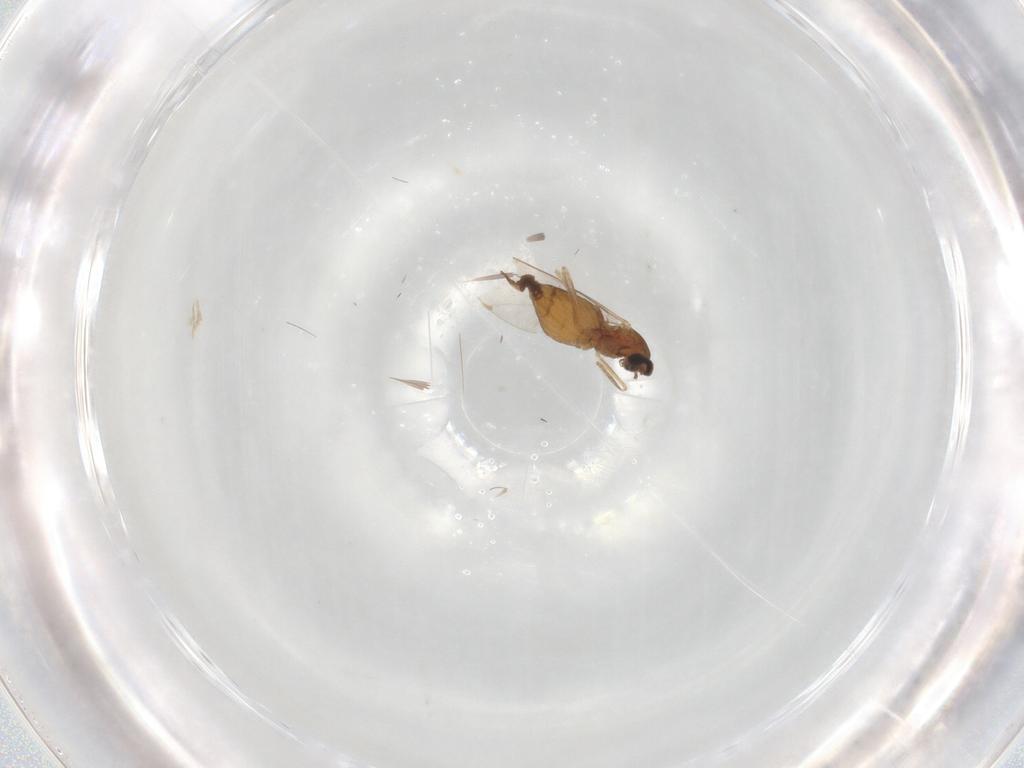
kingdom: Animalia
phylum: Arthropoda
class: Insecta
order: Diptera
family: Cecidomyiidae
